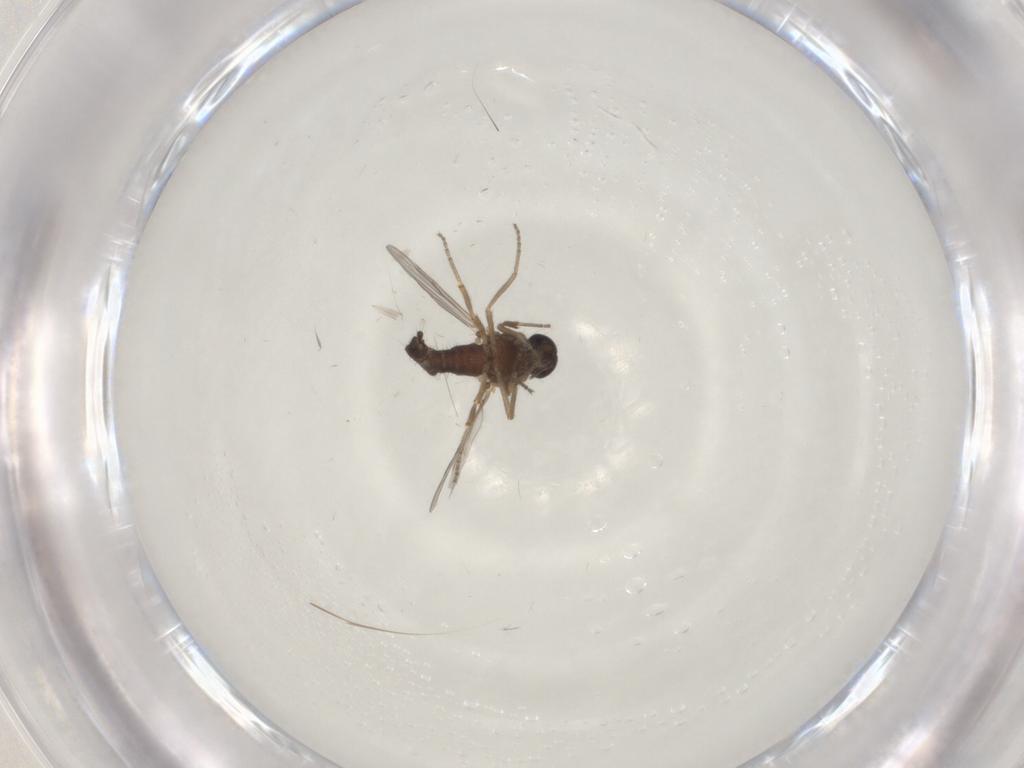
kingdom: Animalia
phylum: Arthropoda
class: Insecta
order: Diptera
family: Ceratopogonidae
